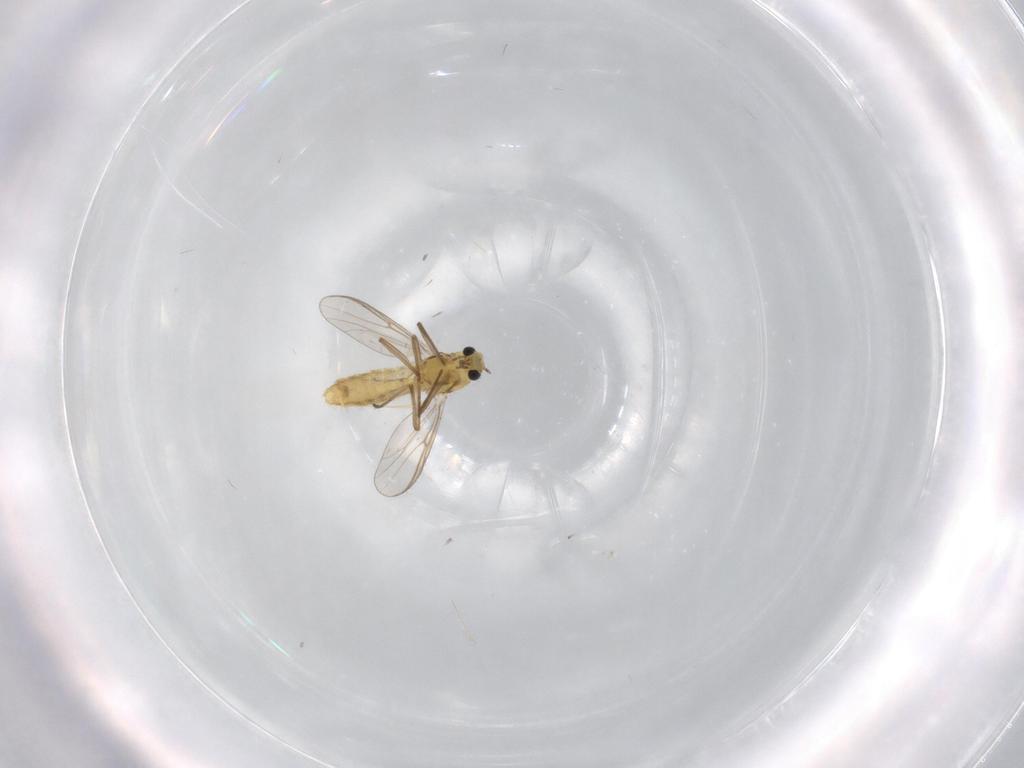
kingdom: Animalia
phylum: Arthropoda
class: Insecta
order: Diptera
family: Chironomidae
